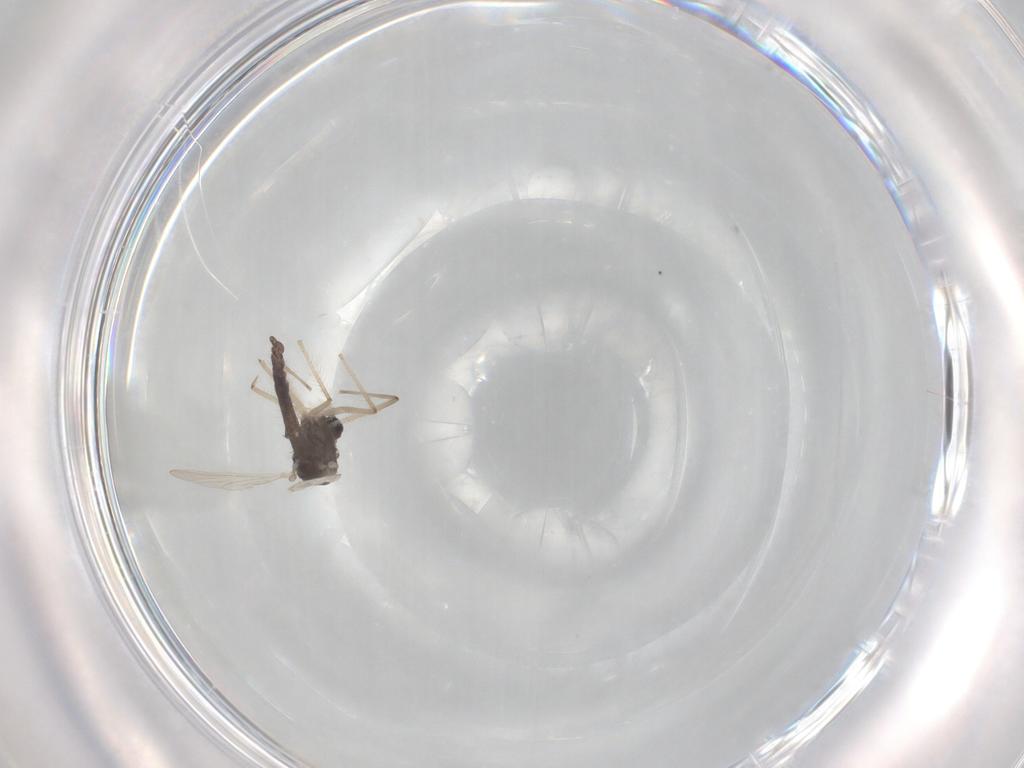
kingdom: Animalia
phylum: Arthropoda
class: Insecta
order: Diptera
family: Chironomidae
